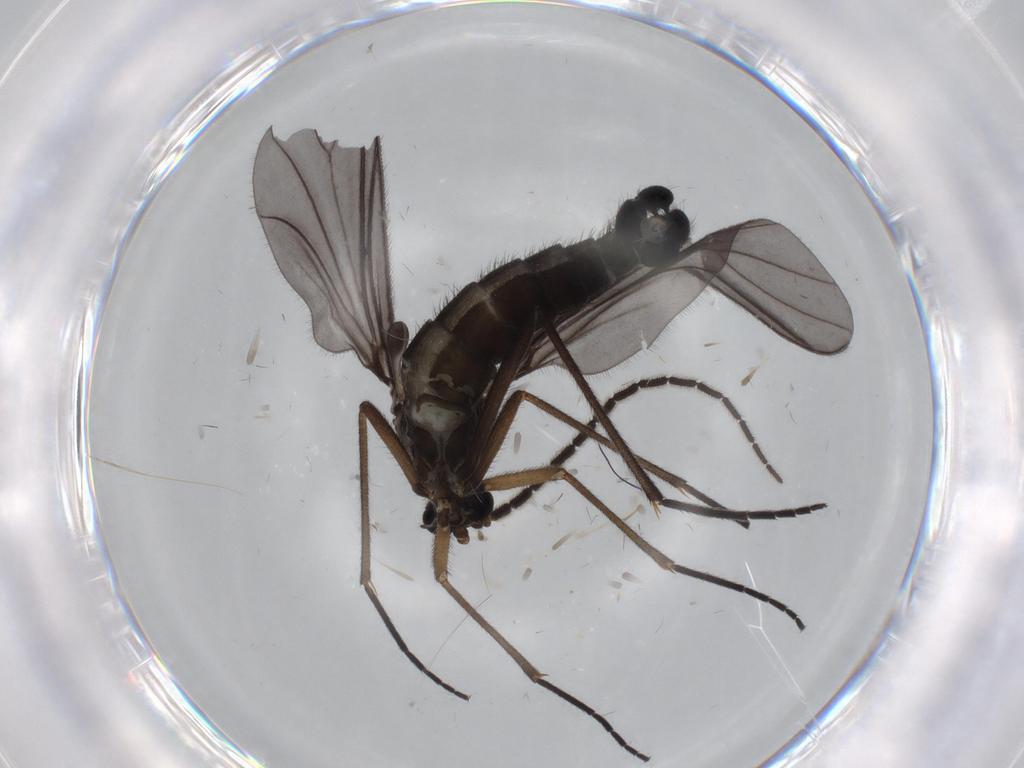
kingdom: Animalia
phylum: Arthropoda
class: Insecta
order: Diptera
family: Sciaridae
